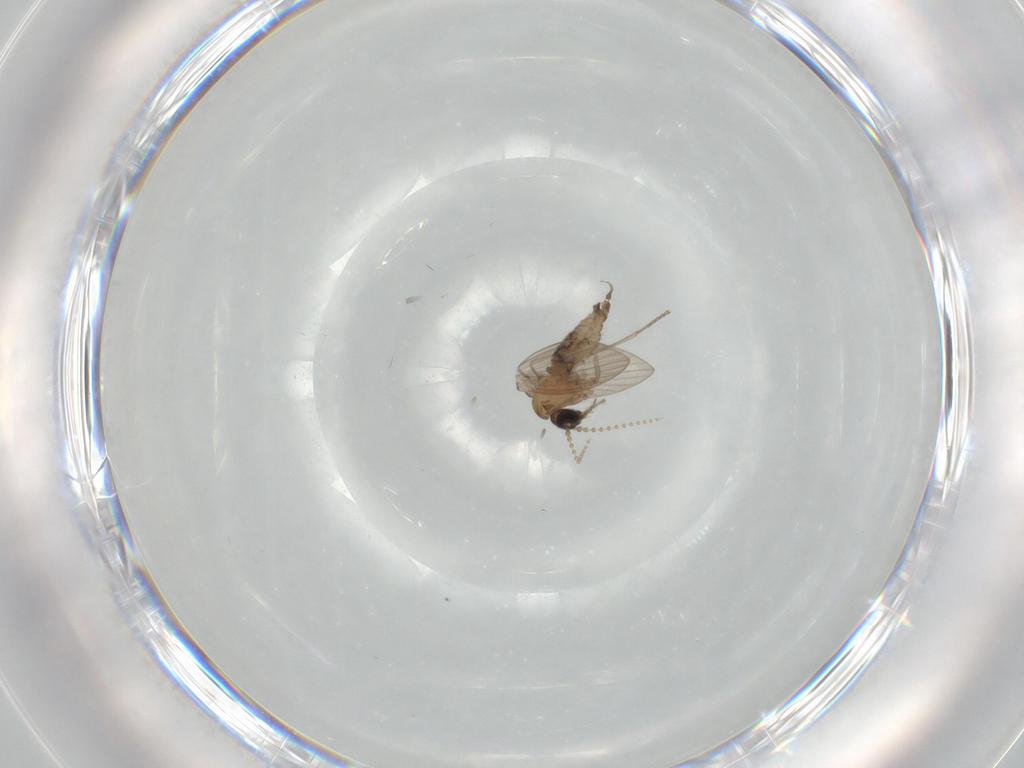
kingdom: Animalia
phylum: Arthropoda
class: Insecta
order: Diptera
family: Psychodidae
